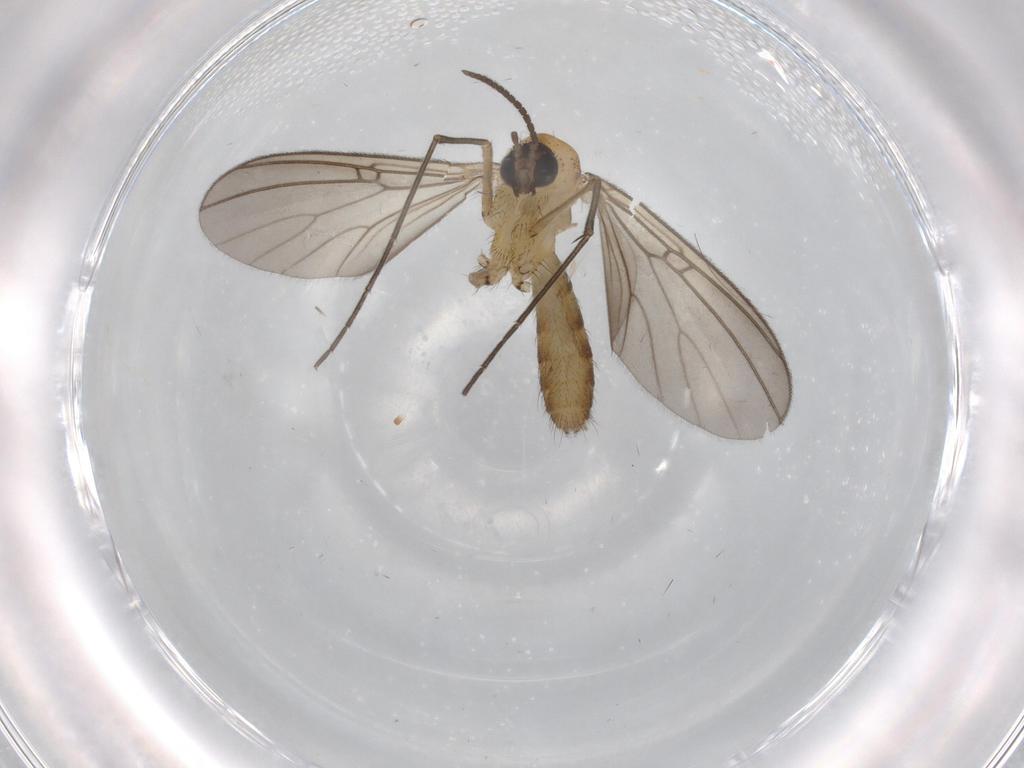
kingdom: Animalia
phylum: Arthropoda
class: Insecta
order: Diptera
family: Mycetophilidae
